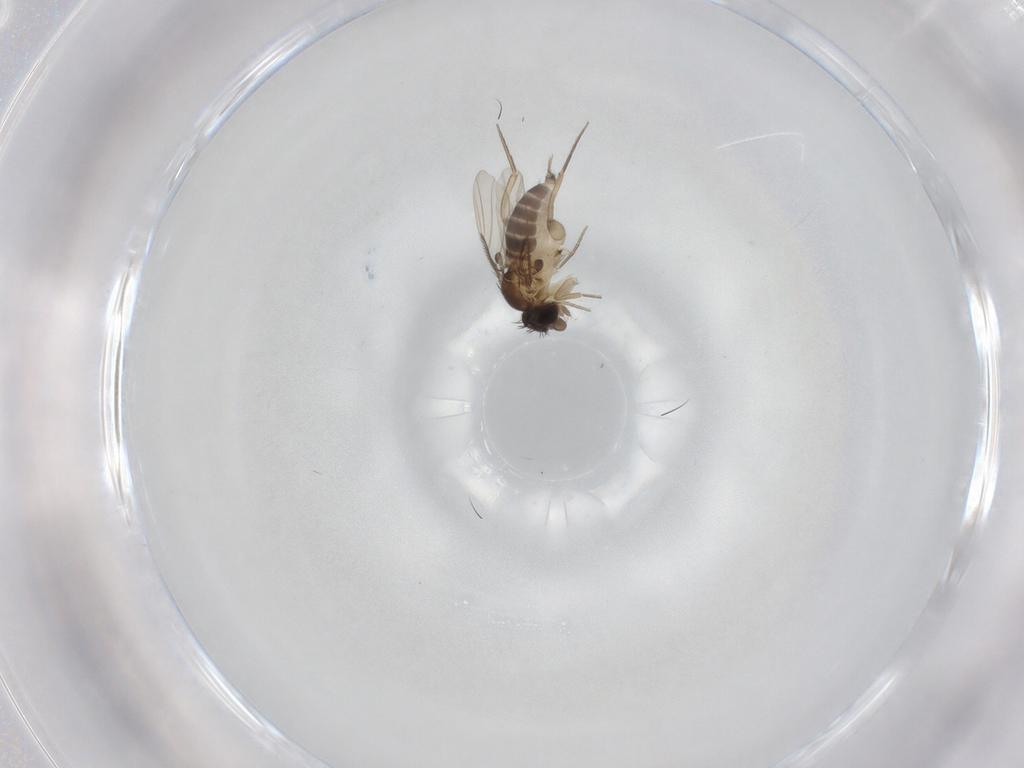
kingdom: Animalia
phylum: Arthropoda
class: Insecta
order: Diptera
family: Phoridae
